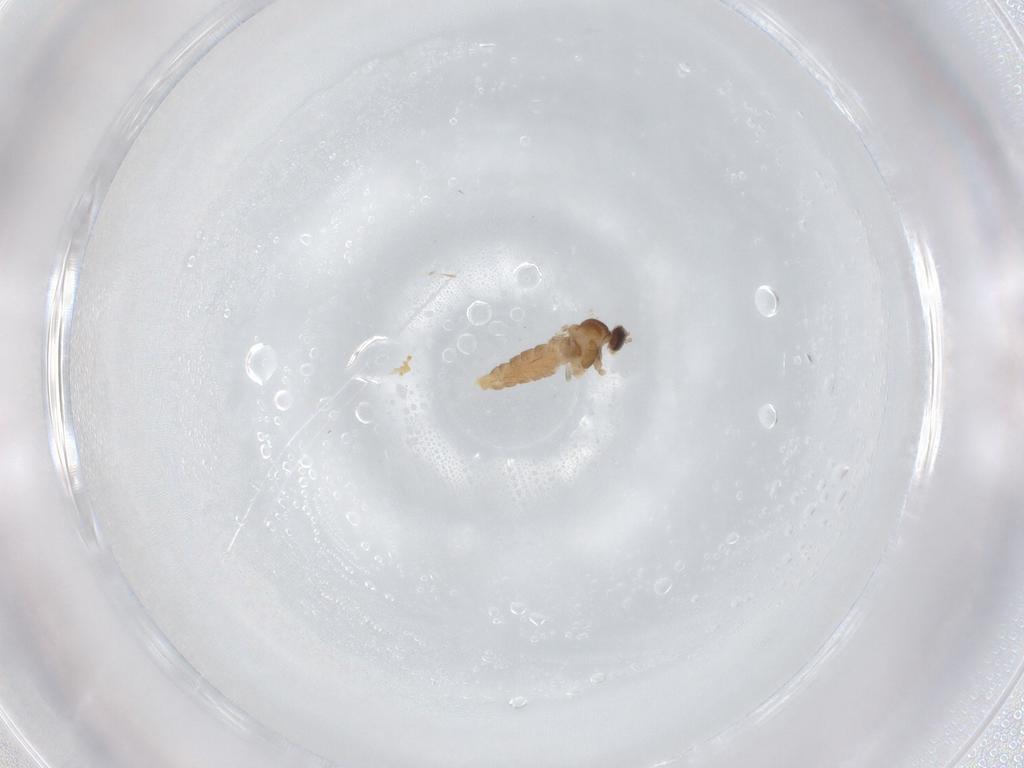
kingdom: Animalia
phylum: Arthropoda
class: Insecta
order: Diptera
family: Cecidomyiidae
